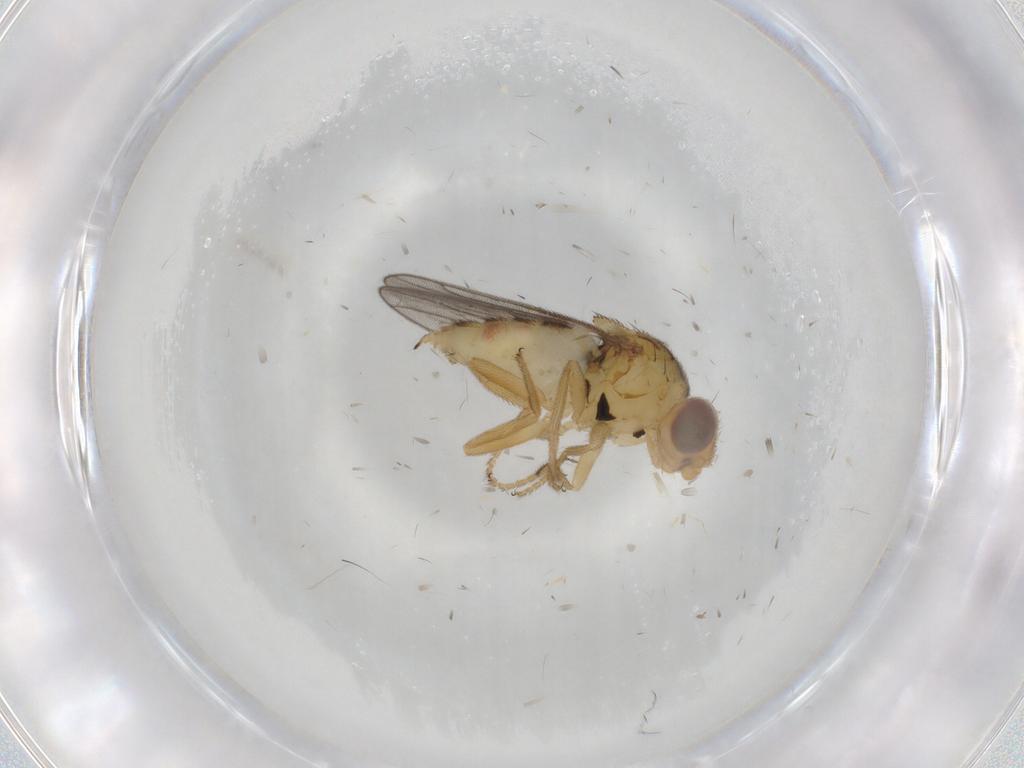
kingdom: Animalia
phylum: Arthropoda
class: Insecta
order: Diptera
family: Chloropidae
